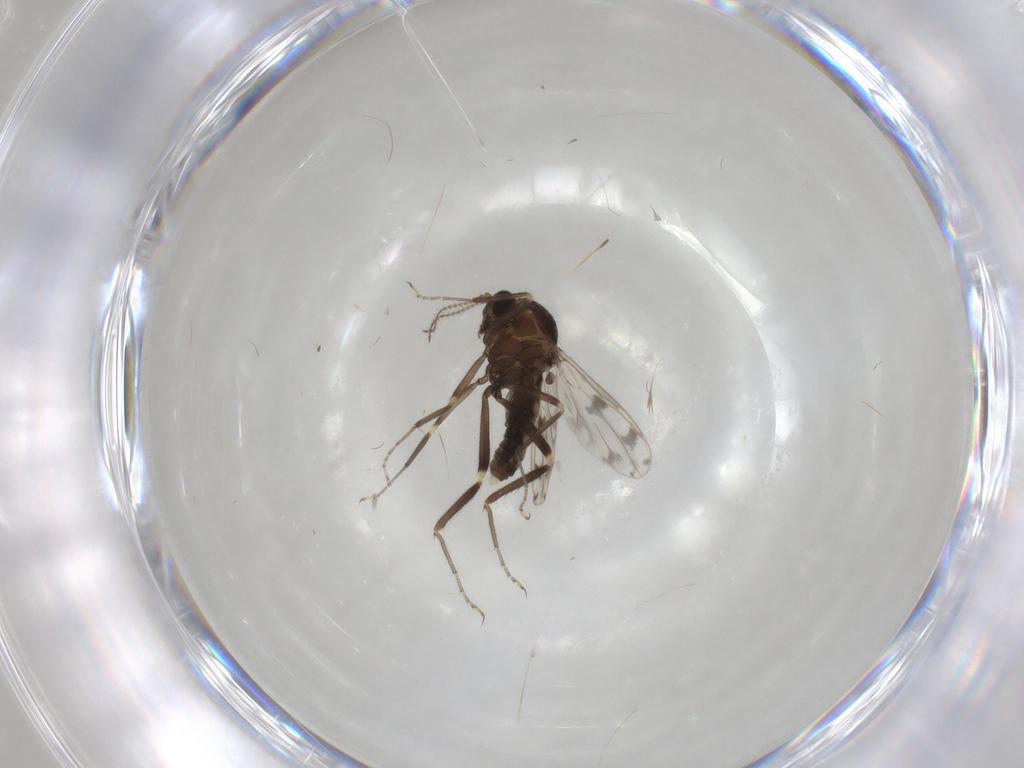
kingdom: Animalia
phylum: Arthropoda
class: Insecta
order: Diptera
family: Ceratopogonidae
